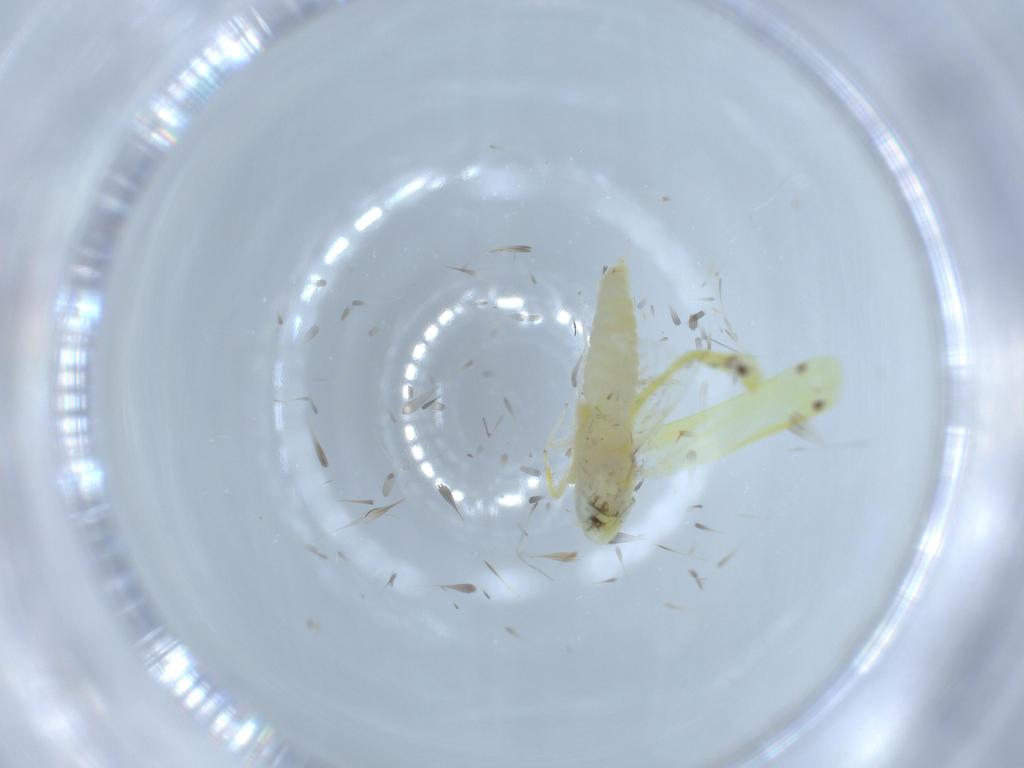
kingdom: Animalia
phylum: Arthropoda
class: Insecta
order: Hemiptera
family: Cicadellidae
